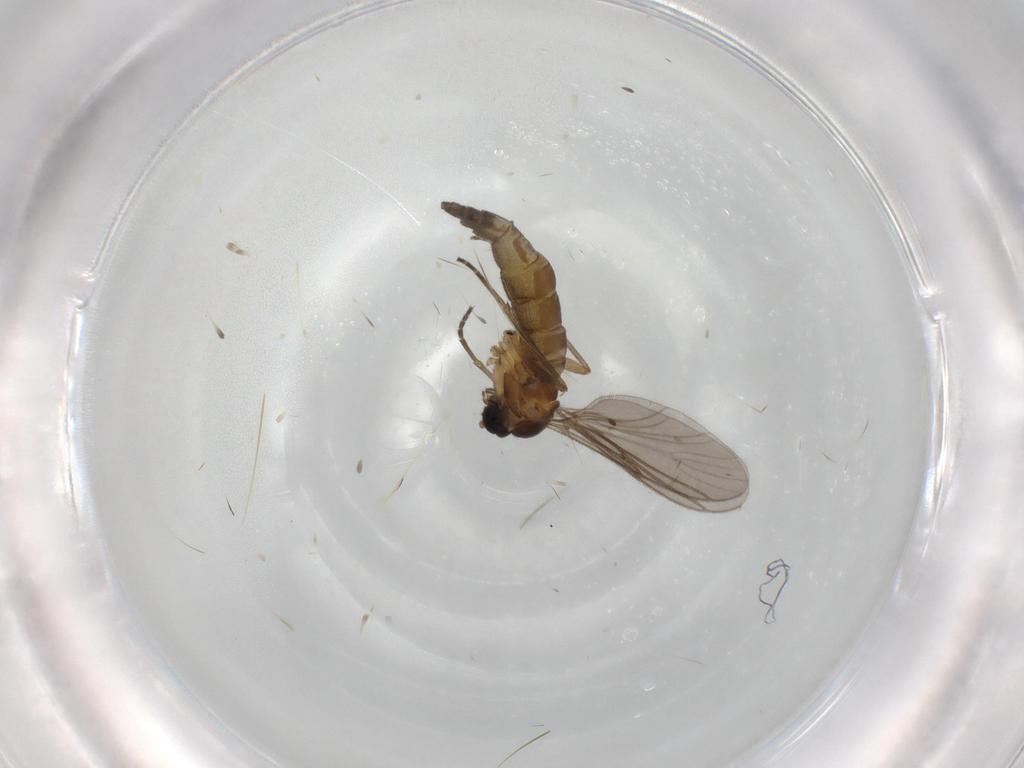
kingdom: Animalia
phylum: Arthropoda
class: Insecta
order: Diptera
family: Sciaridae
